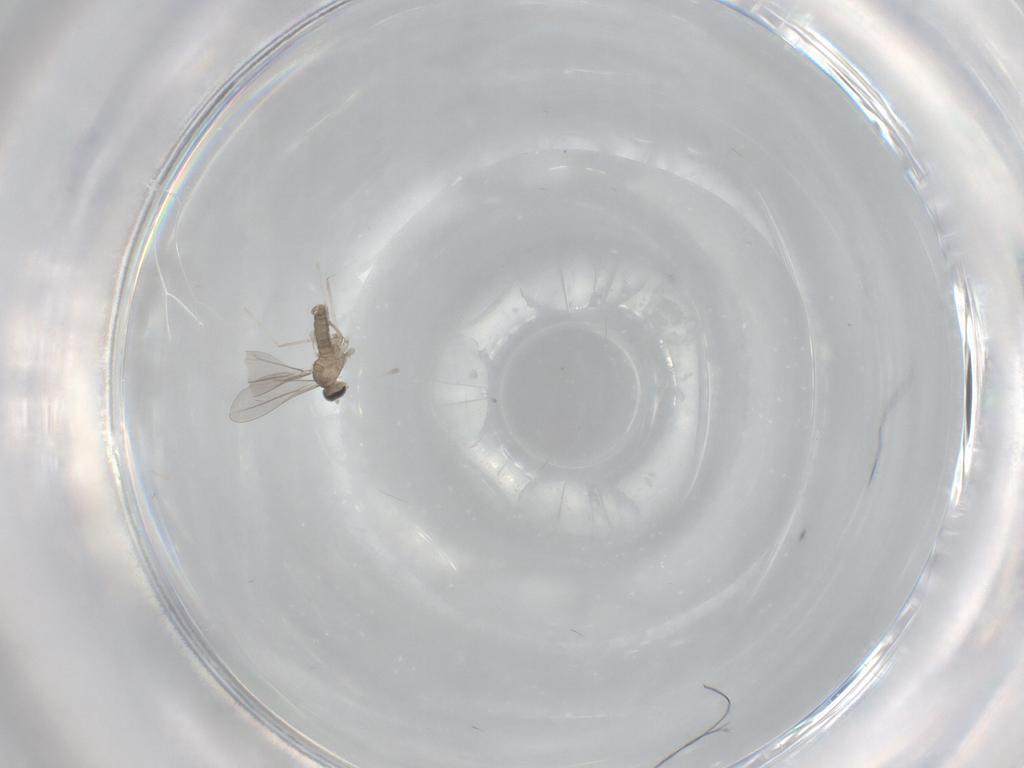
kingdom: Animalia
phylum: Arthropoda
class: Insecta
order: Diptera
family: Cecidomyiidae
